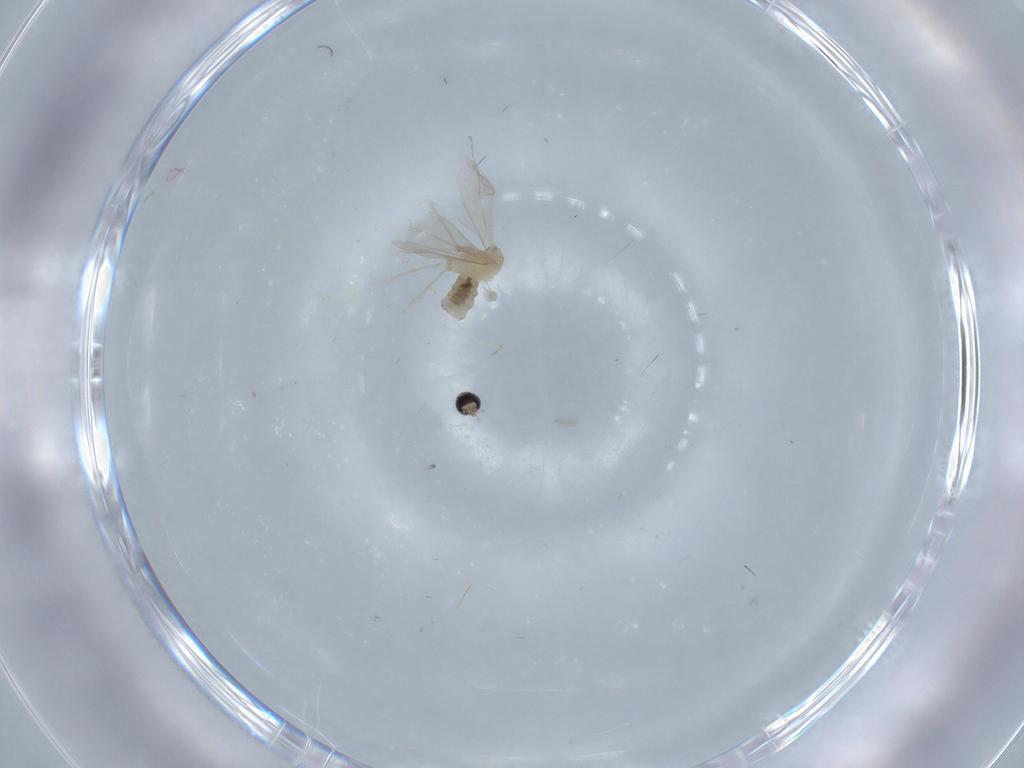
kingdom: Animalia
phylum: Arthropoda
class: Insecta
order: Diptera
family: Cecidomyiidae
